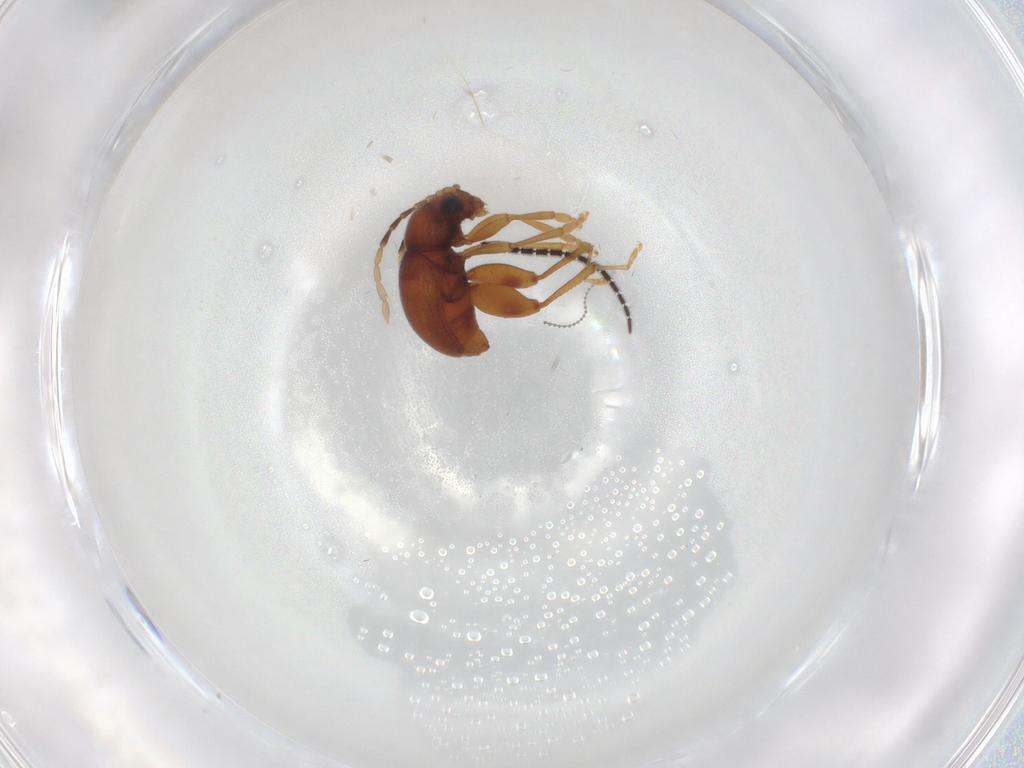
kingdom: Animalia
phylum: Arthropoda
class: Insecta
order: Coleoptera
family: Chrysomelidae
